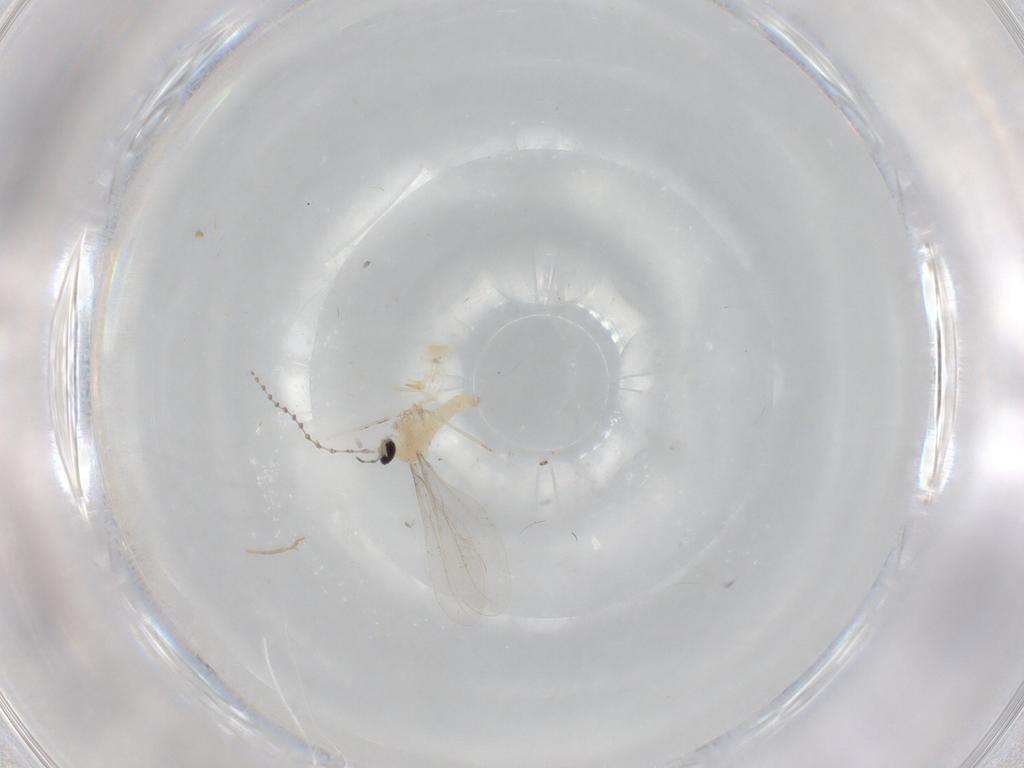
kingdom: Animalia
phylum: Arthropoda
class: Insecta
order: Diptera
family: Cecidomyiidae
